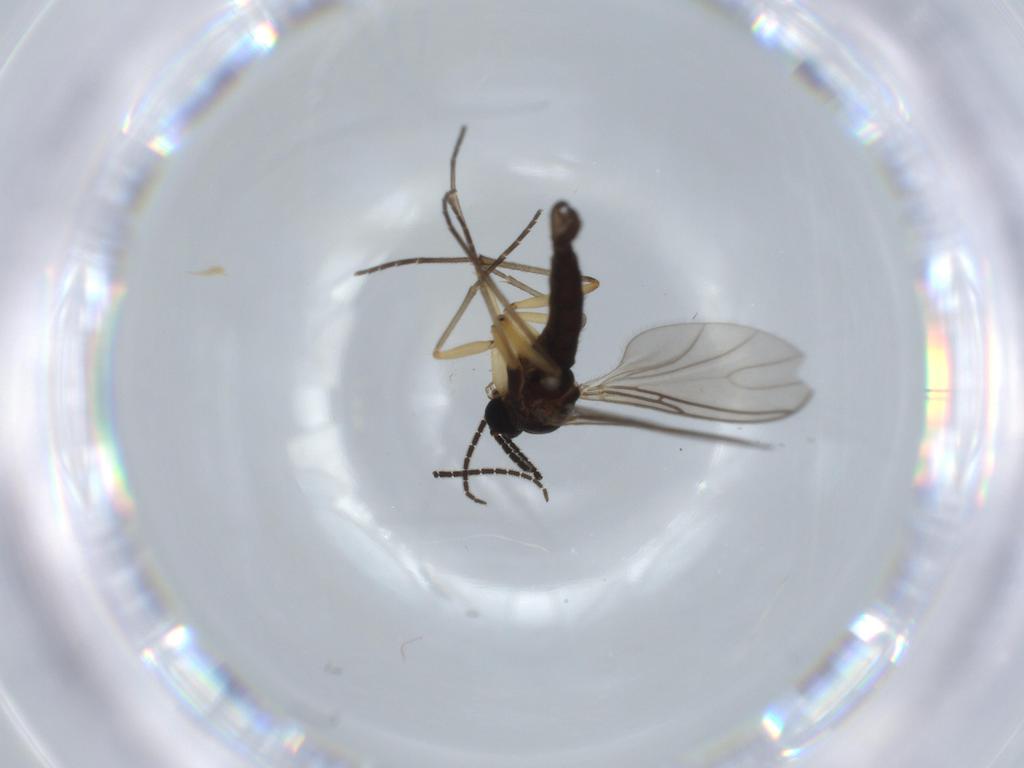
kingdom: Animalia
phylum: Arthropoda
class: Insecta
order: Diptera
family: Sciaridae
